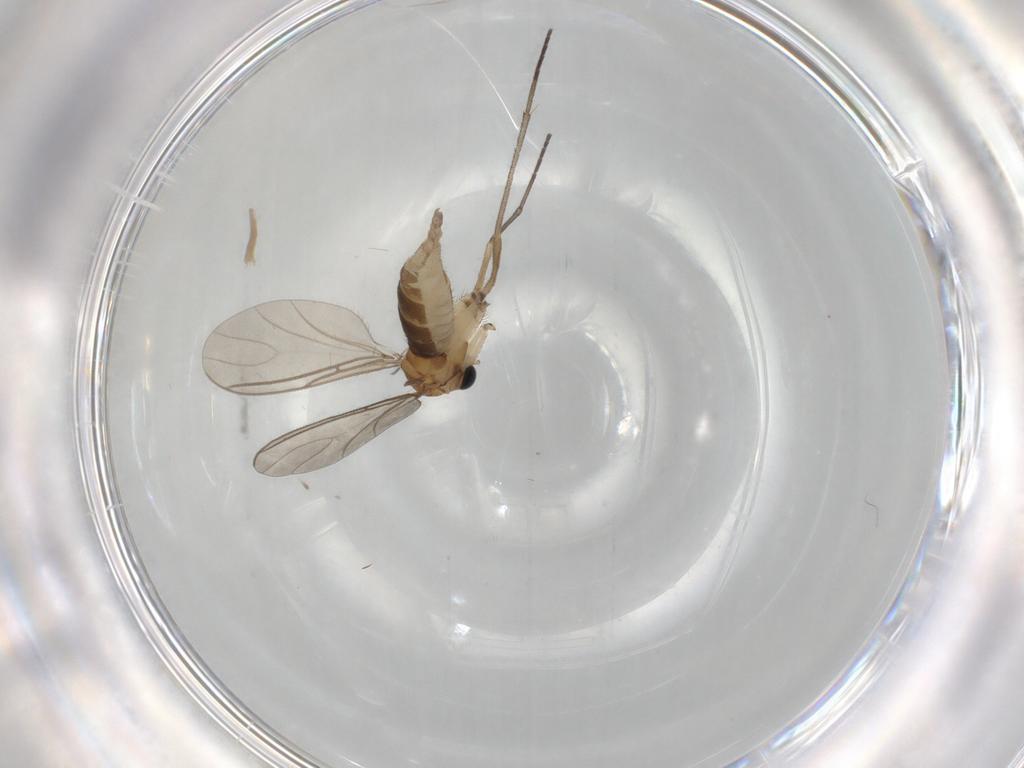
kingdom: Animalia
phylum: Arthropoda
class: Insecta
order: Diptera
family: Sciaridae
